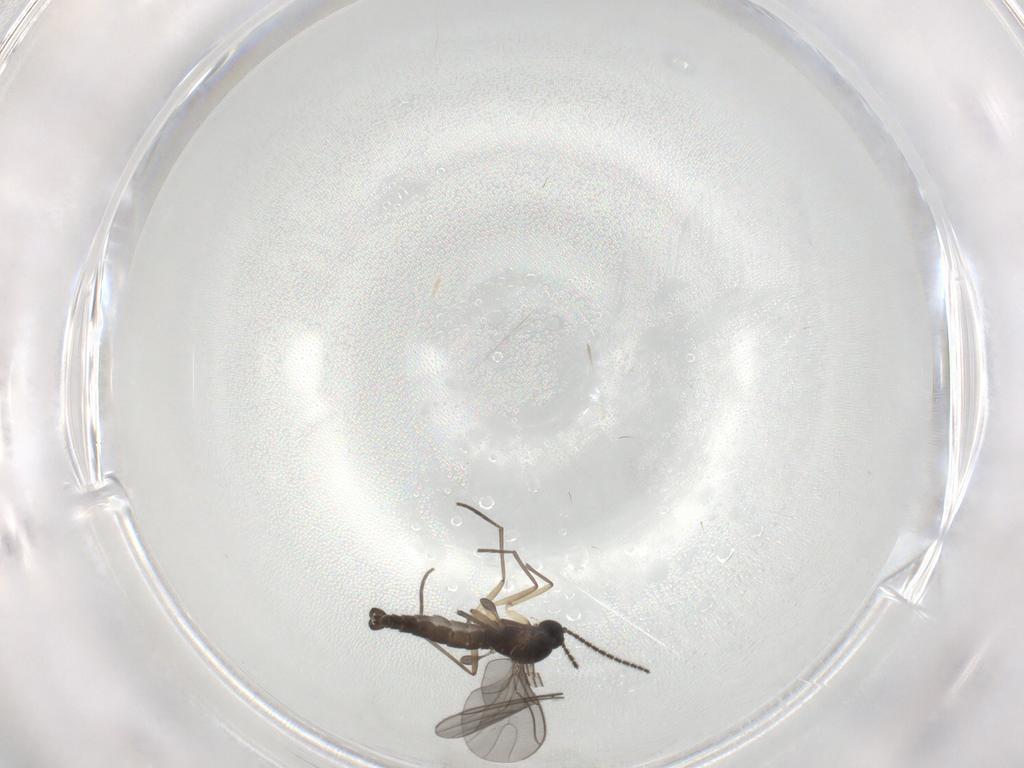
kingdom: Animalia
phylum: Arthropoda
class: Insecta
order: Diptera
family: Sciaridae
